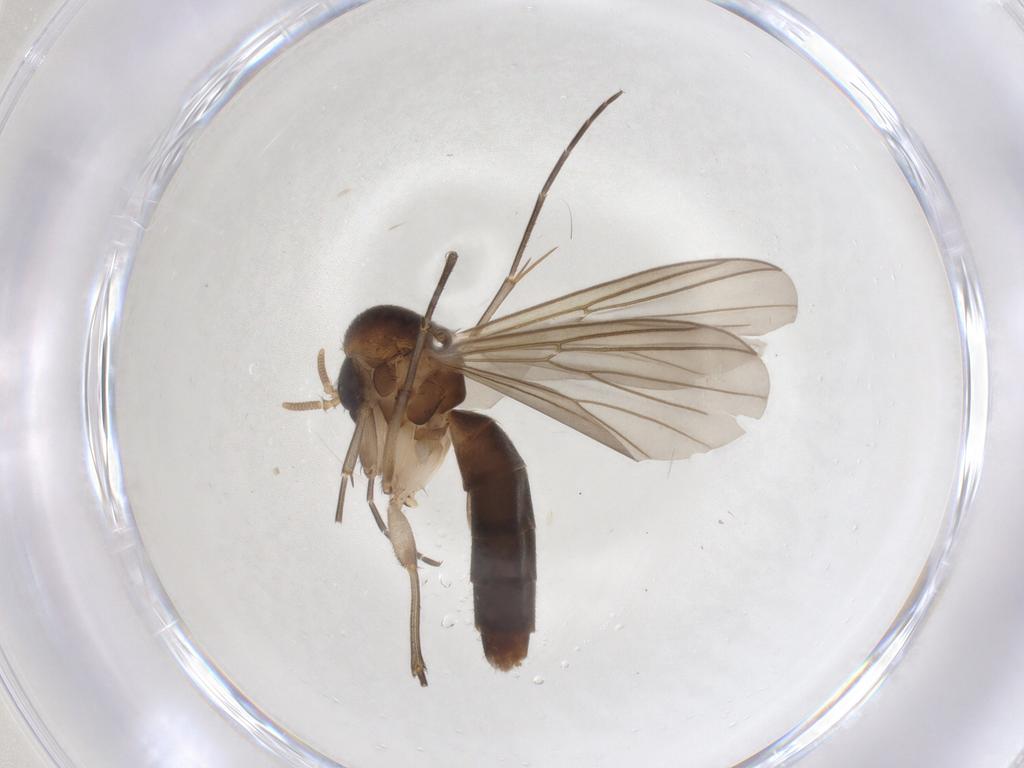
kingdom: Animalia
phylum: Arthropoda
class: Insecta
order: Diptera
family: Mycetophilidae
